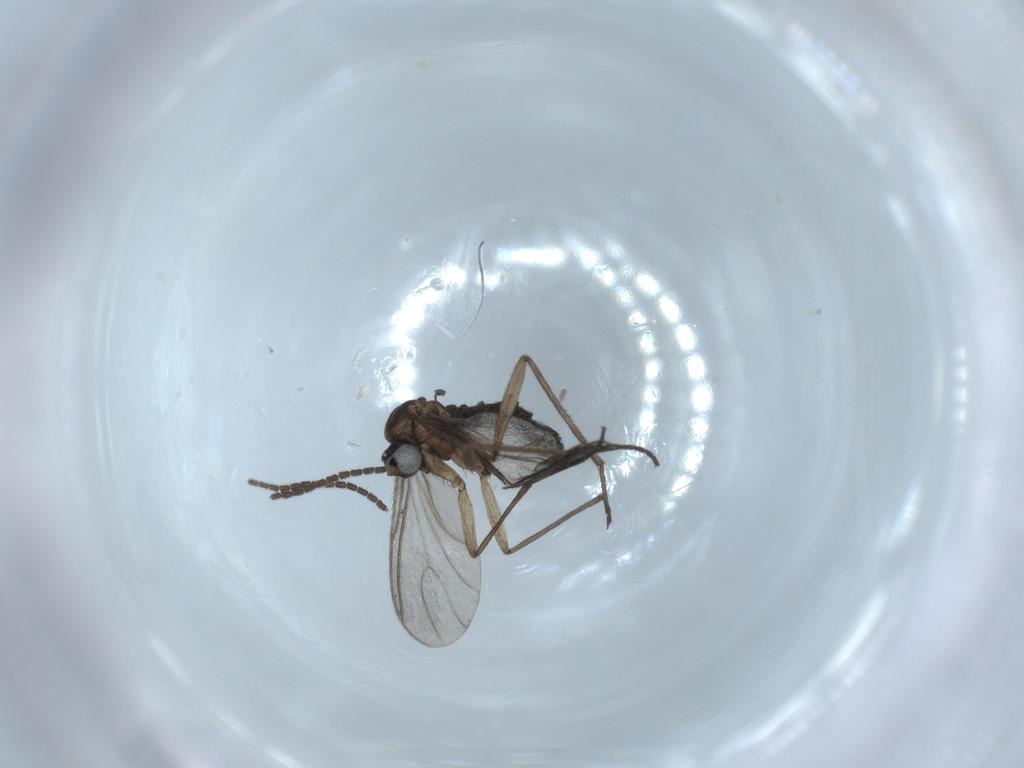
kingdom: Animalia
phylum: Arthropoda
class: Insecta
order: Diptera
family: Sciaridae
